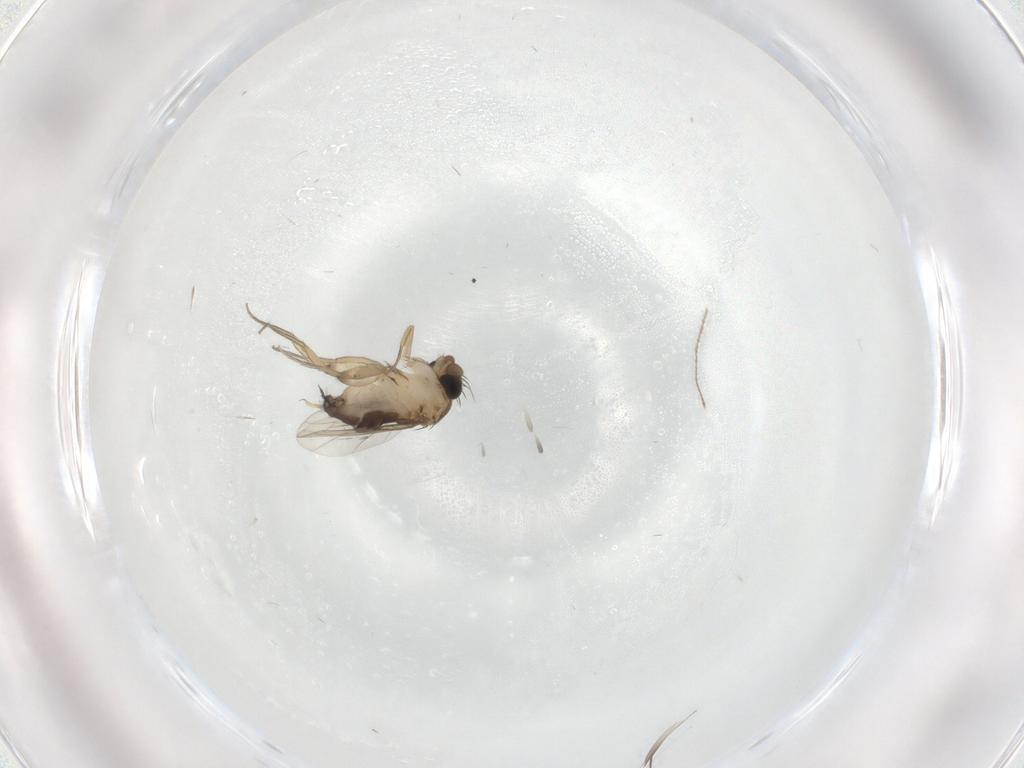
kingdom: Animalia
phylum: Arthropoda
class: Insecta
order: Diptera
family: Phoridae
